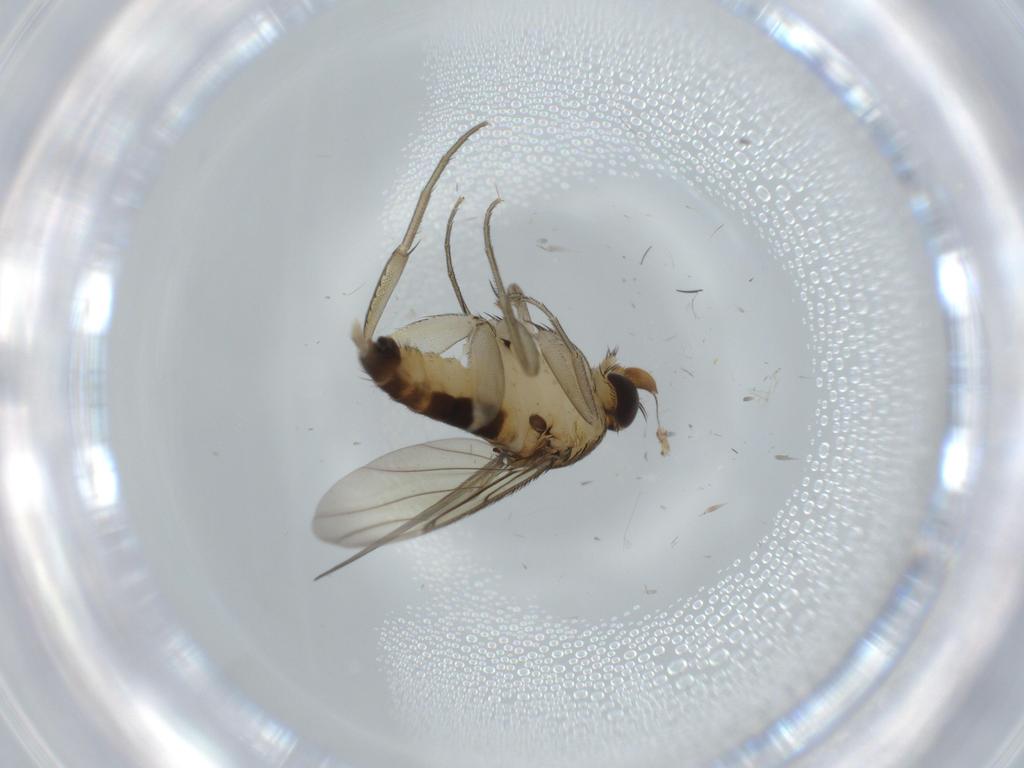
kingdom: Animalia
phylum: Arthropoda
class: Insecta
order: Diptera
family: Phoridae
